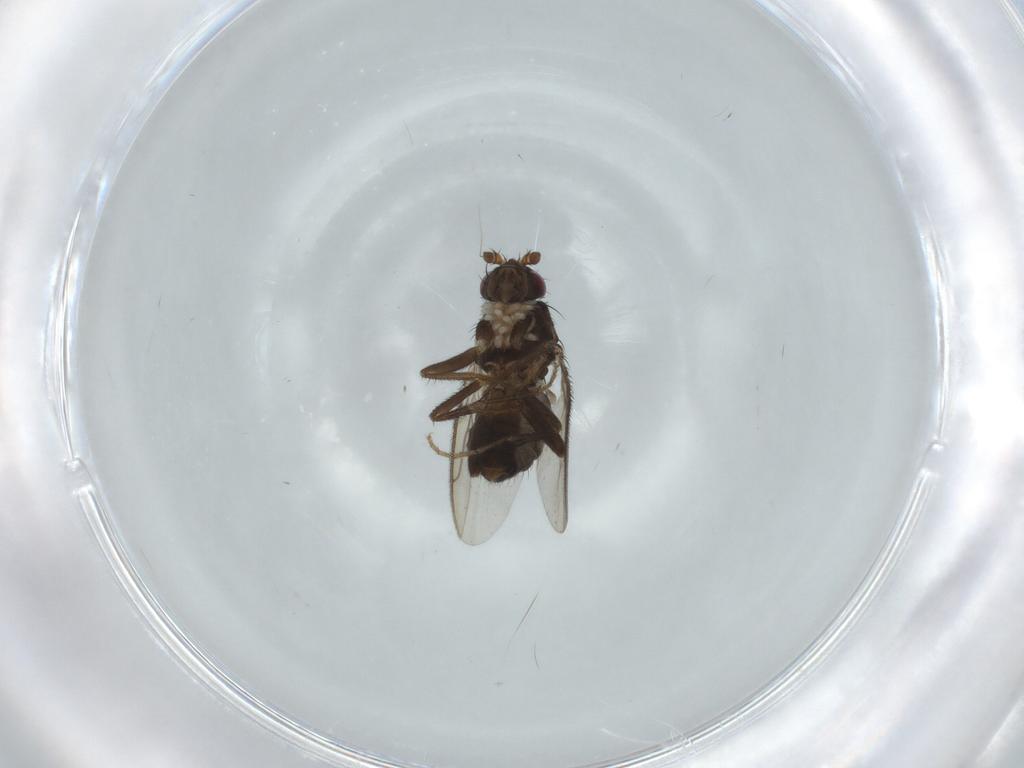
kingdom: Animalia
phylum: Arthropoda
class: Insecta
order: Diptera
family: Sphaeroceridae
